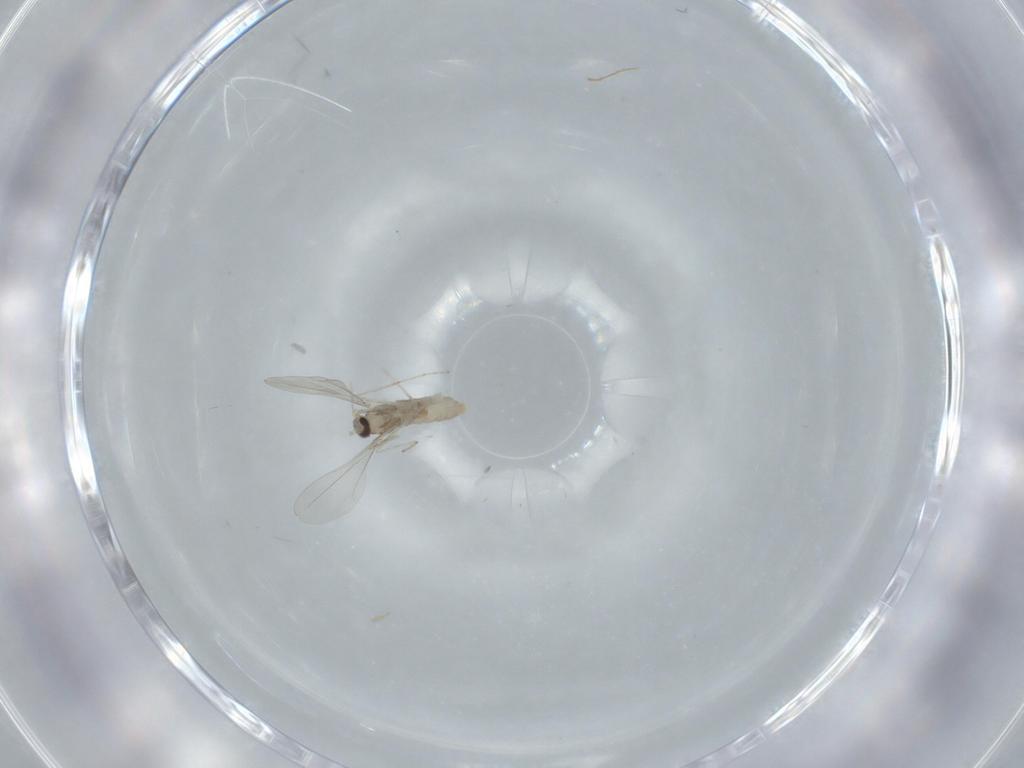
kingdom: Animalia
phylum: Arthropoda
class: Insecta
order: Diptera
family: Cecidomyiidae
